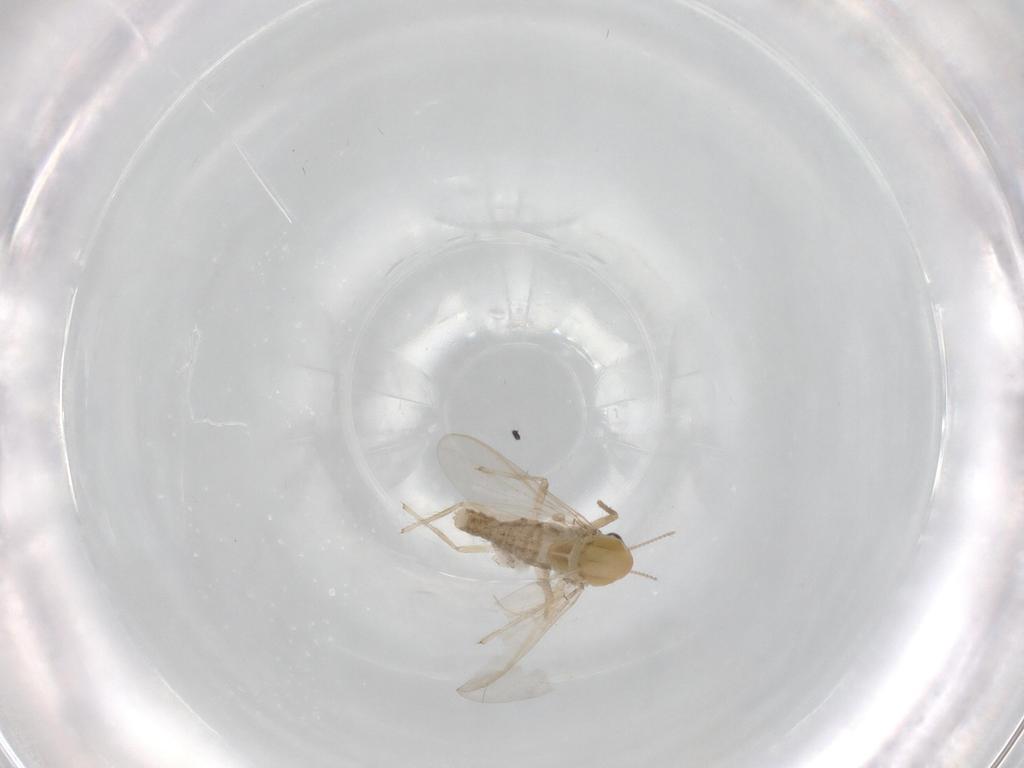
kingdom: Animalia
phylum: Arthropoda
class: Insecta
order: Diptera
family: Chironomidae
